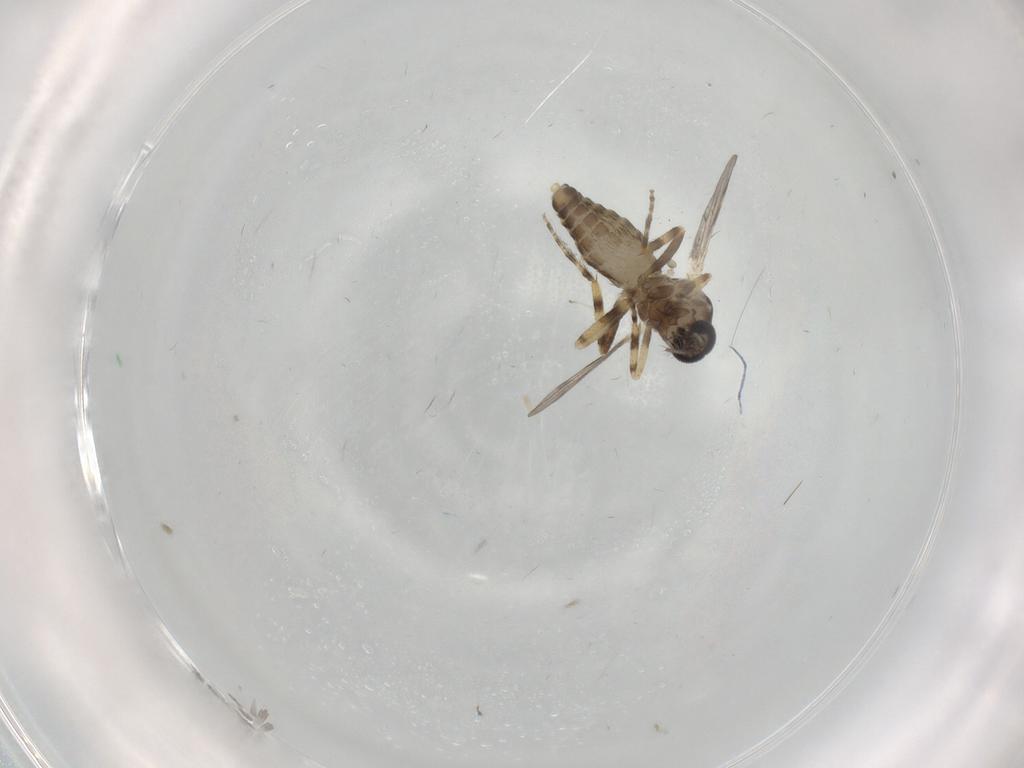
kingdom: Animalia
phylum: Arthropoda
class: Insecta
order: Diptera
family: Ceratopogonidae
